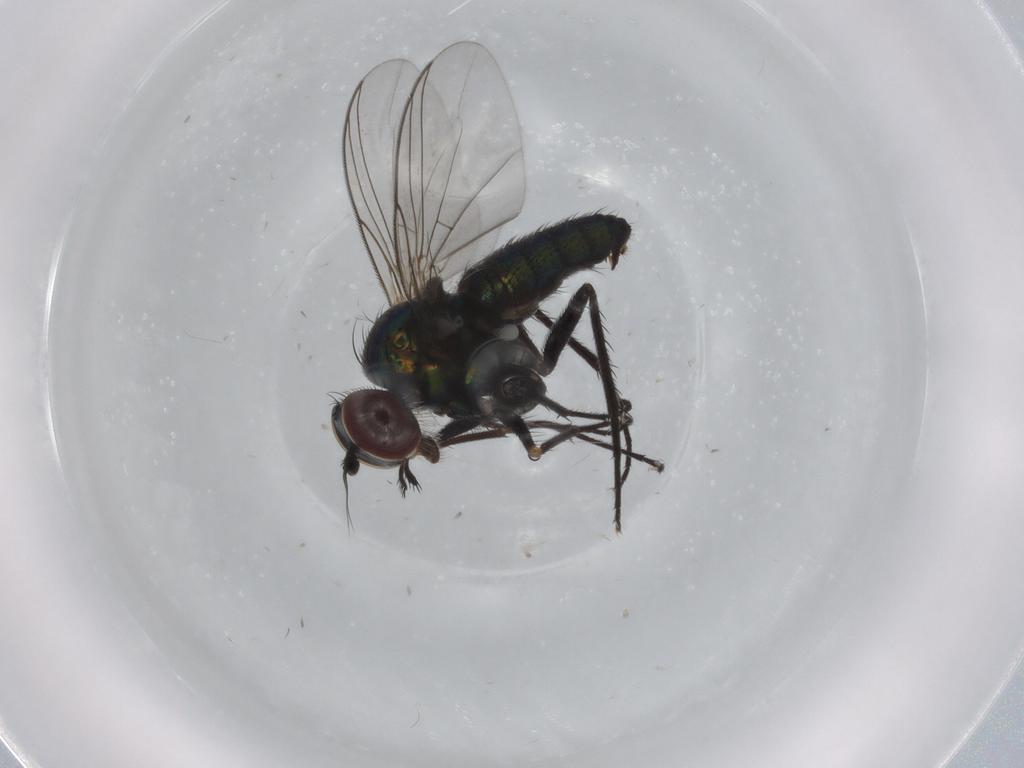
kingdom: Animalia
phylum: Arthropoda
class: Insecta
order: Diptera
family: Dolichopodidae
